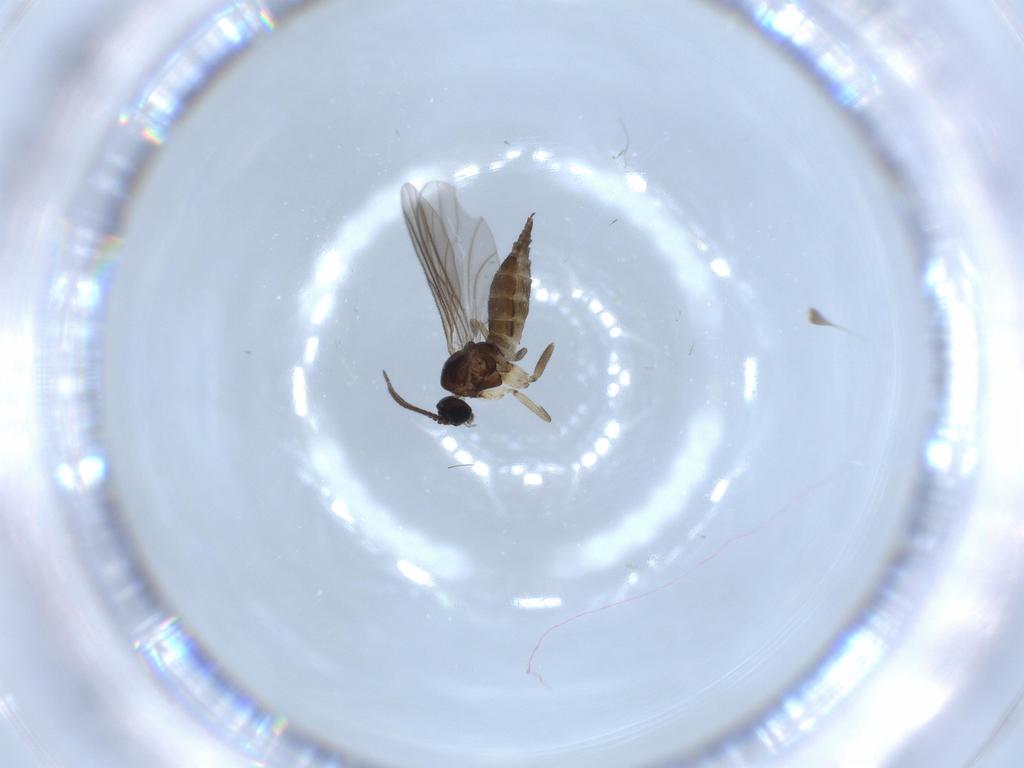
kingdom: Animalia
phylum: Arthropoda
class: Insecta
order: Diptera
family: Sciaridae
